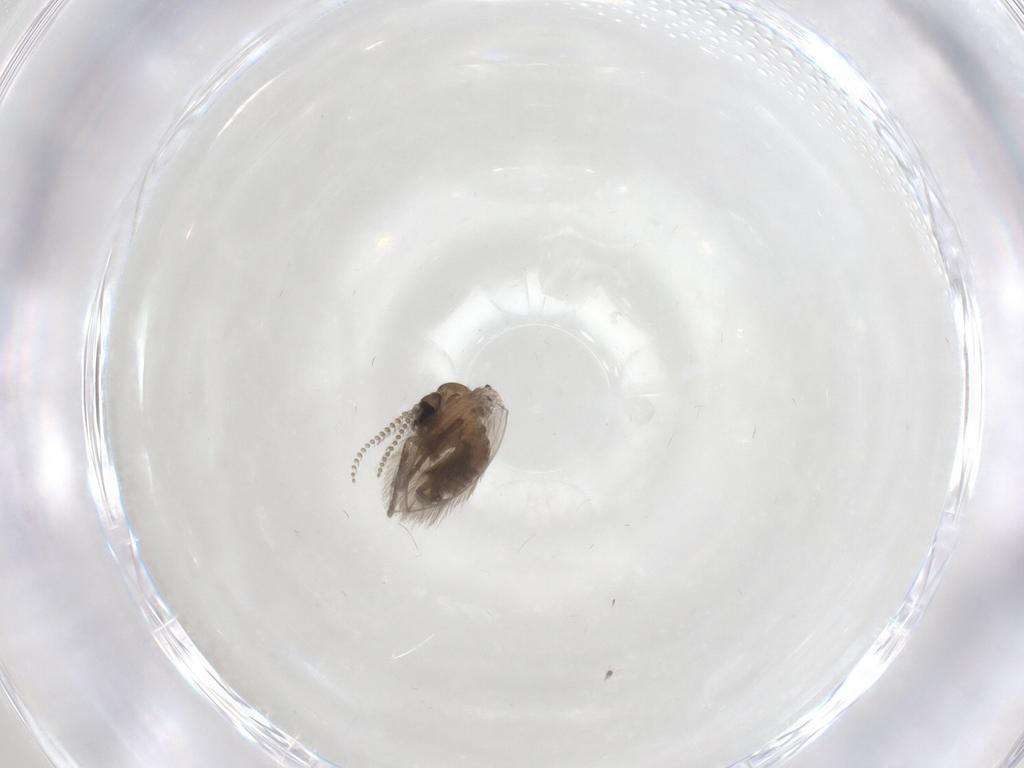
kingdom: Animalia
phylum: Arthropoda
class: Insecta
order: Diptera
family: Psychodidae
